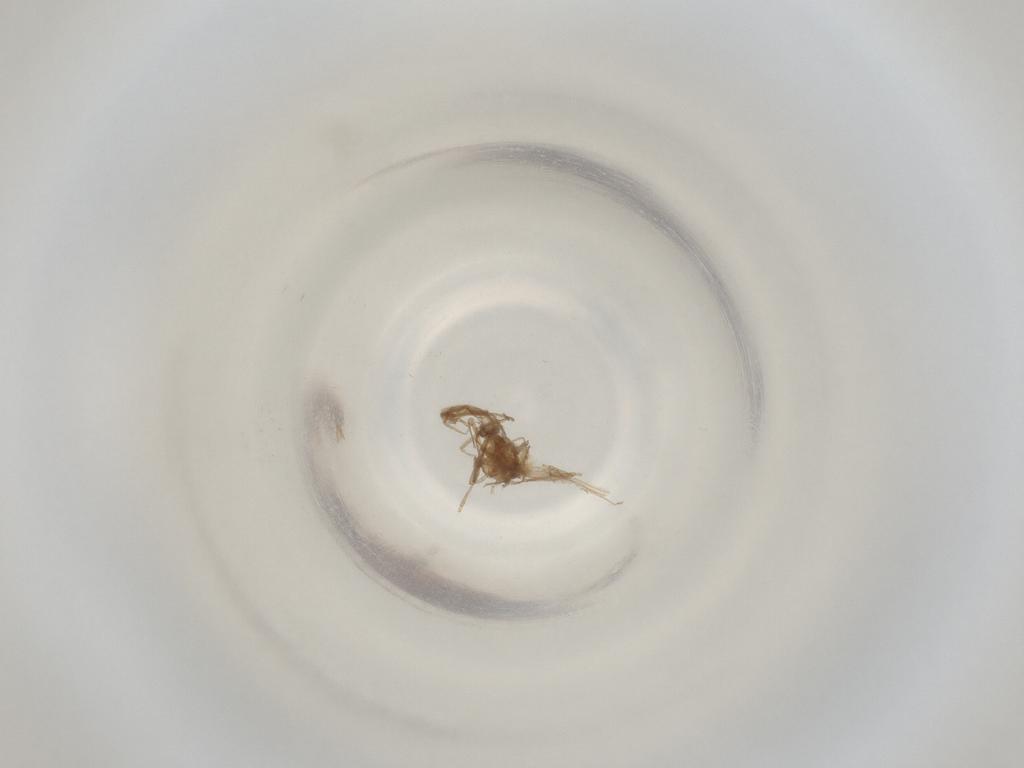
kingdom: Animalia
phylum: Arthropoda
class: Insecta
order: Diptera
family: Cecidomyiidae
